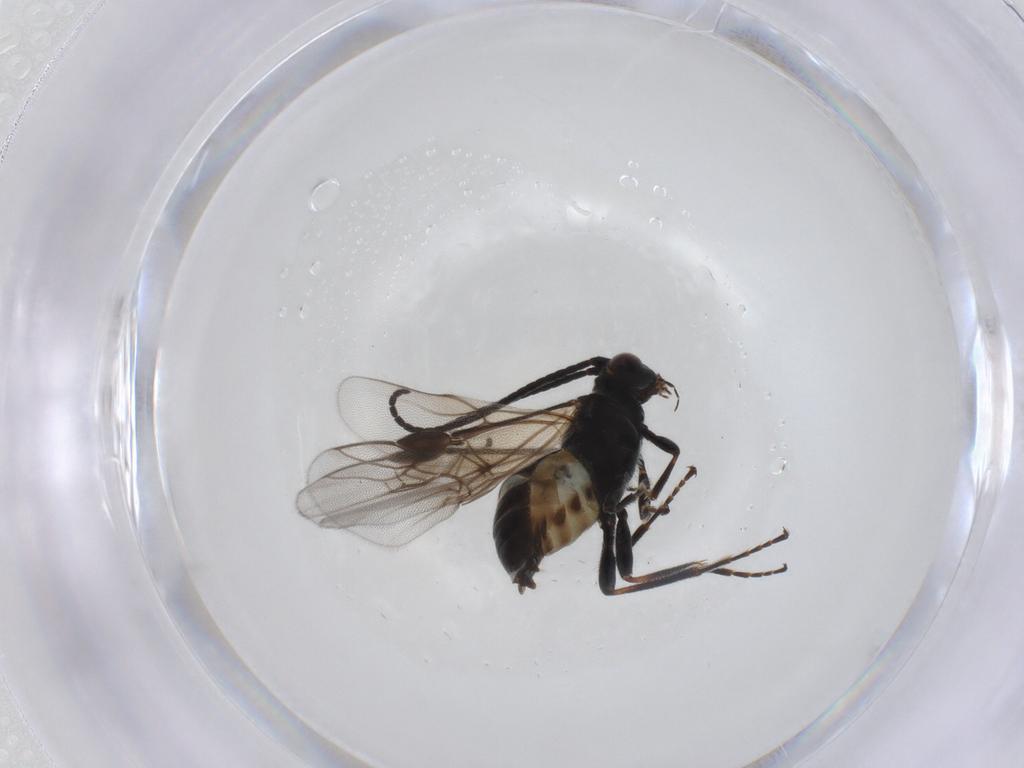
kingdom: Animalia
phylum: Arthropoda
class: Insecta
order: Hymenoptera
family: Braconidae
